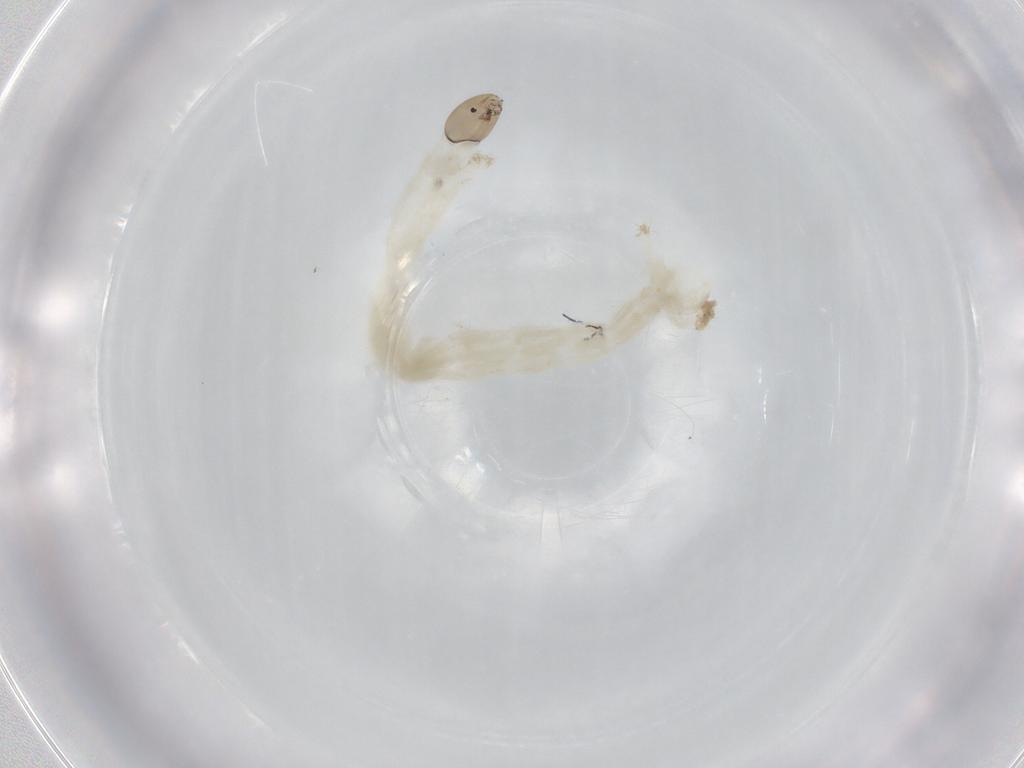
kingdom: Animalia
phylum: Arthropoda
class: Insecta
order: Diptera
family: Chironomidae
